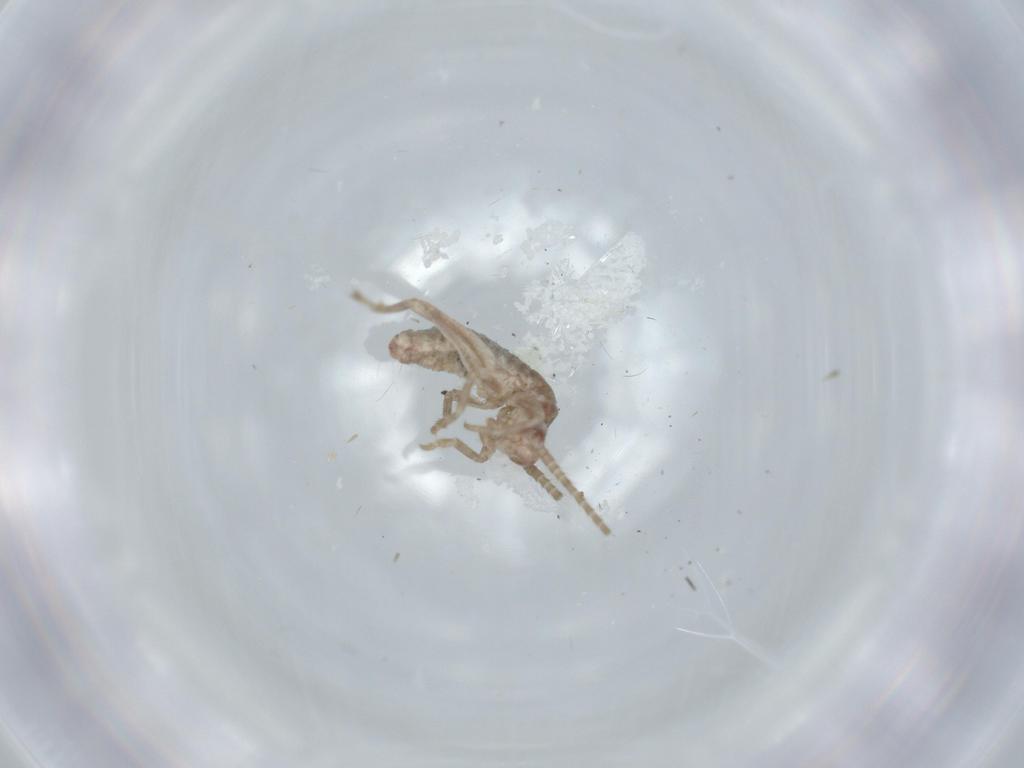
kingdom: Animalia
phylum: Arthropoda
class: Insecta
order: Orthoptera
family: Mogoplistidae
